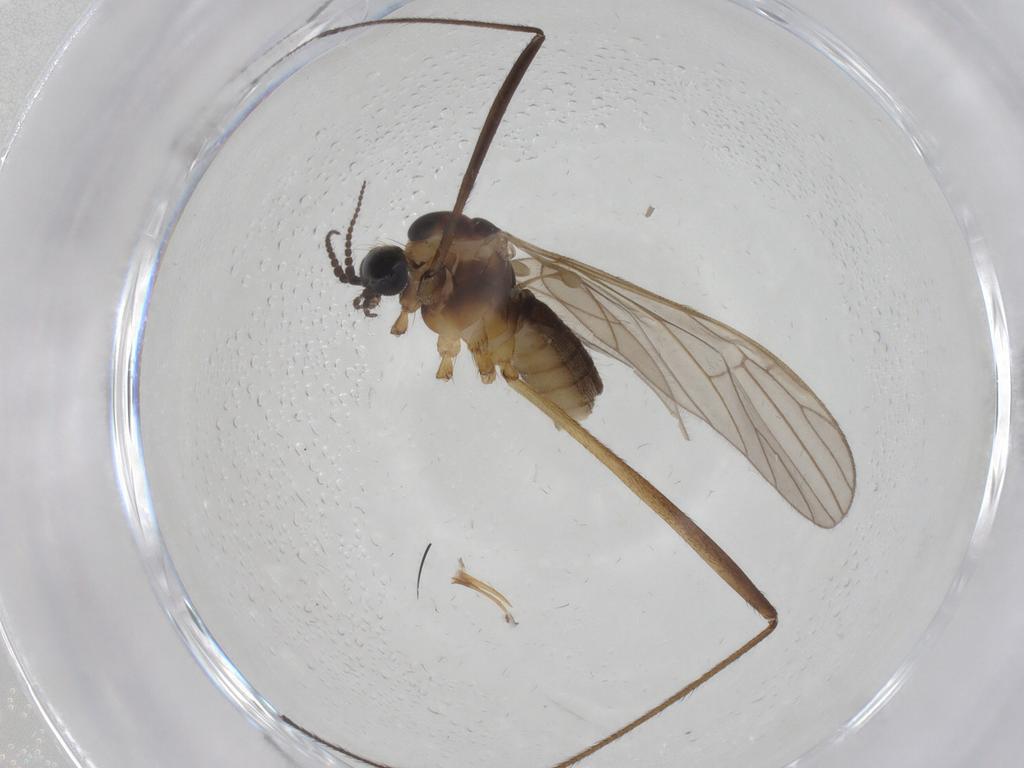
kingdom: Animalia
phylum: Arthropoda
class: Insecta
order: Diptera
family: Agromyzidae
